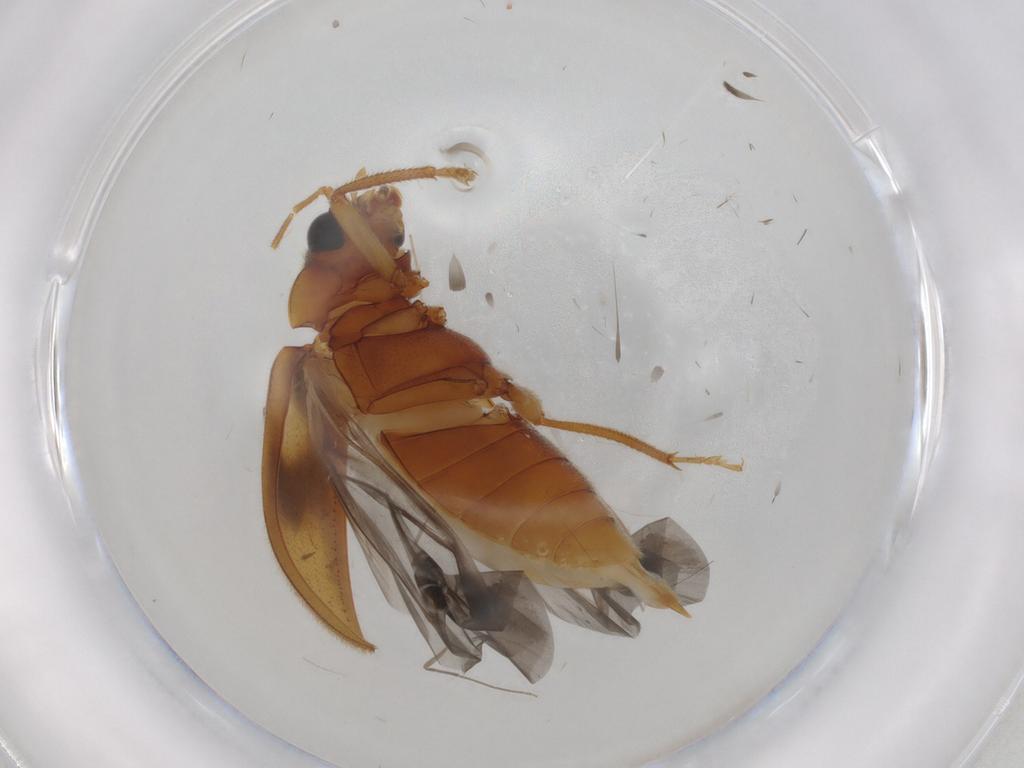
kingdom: Animalia
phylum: Arthropoda
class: Insecta
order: Coleoptera
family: Ptilodactylidae
